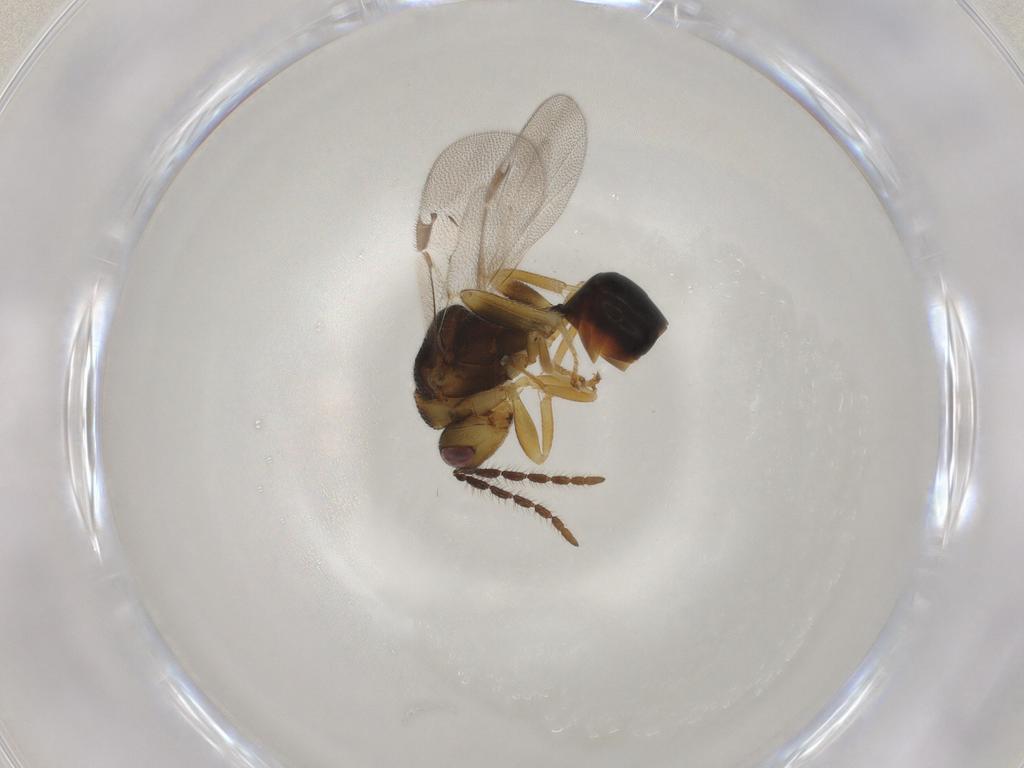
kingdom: Animalia
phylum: Arthropoda
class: Insecta
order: Hymenoptera
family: Eurytomidae
